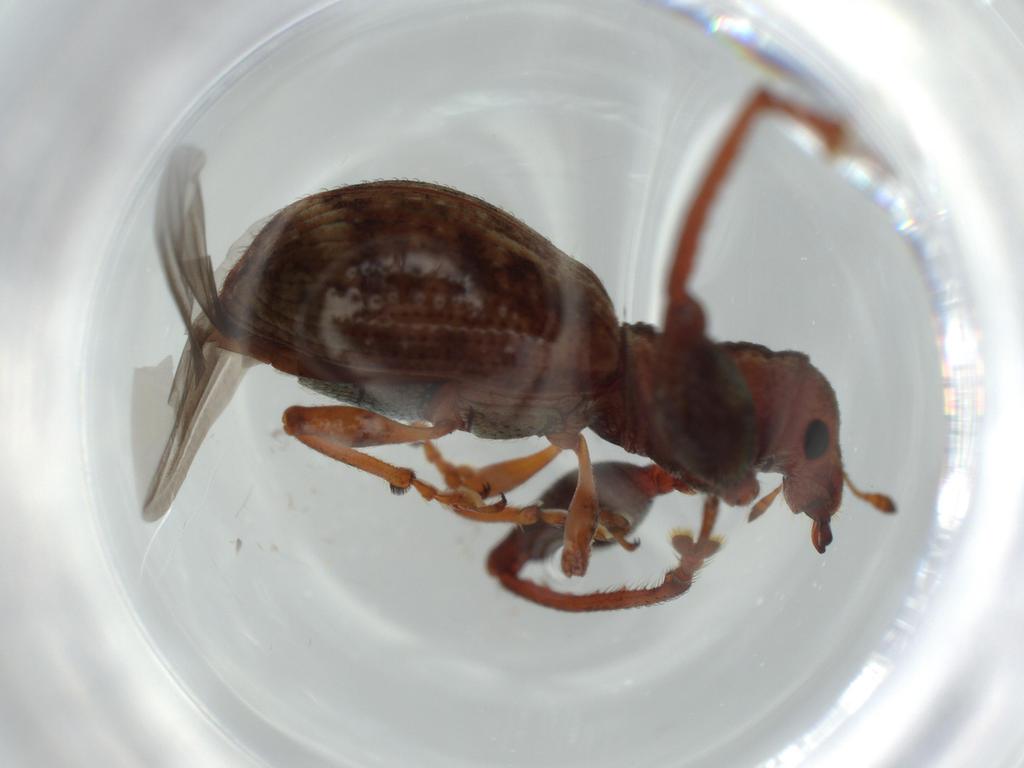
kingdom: Animalia
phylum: Arthropoda
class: Insecta
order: Coleoptera
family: Curculionidae
